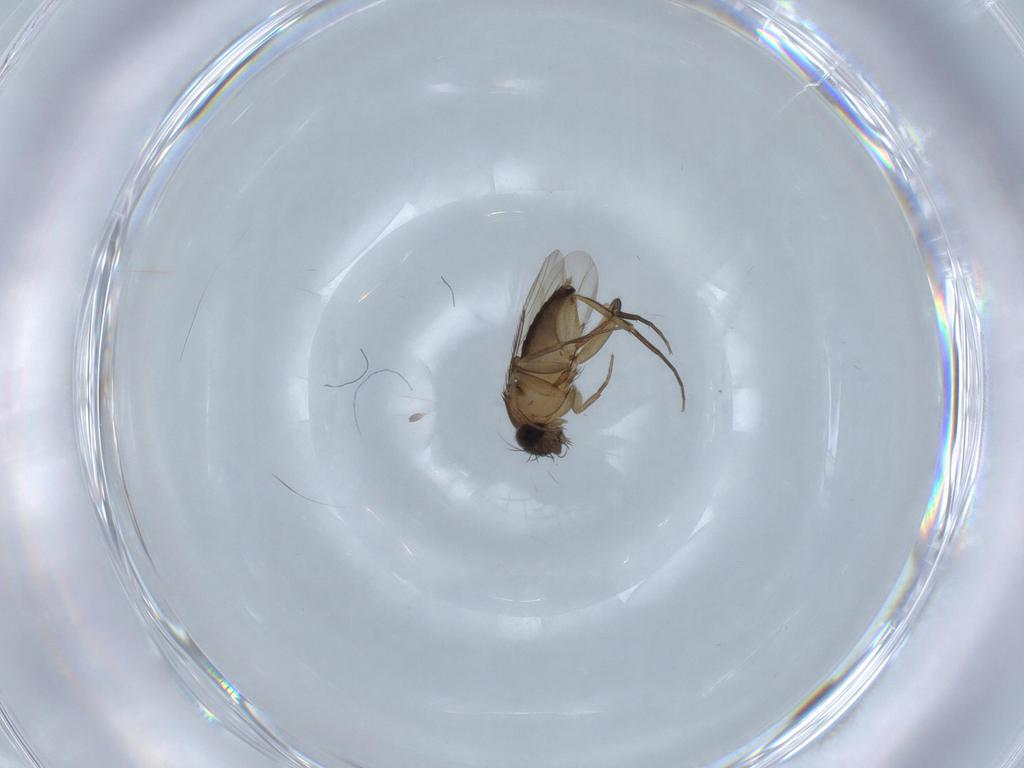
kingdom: Animalia
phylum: Arthropoda
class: Insecta
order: Diptera
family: Phoridae
